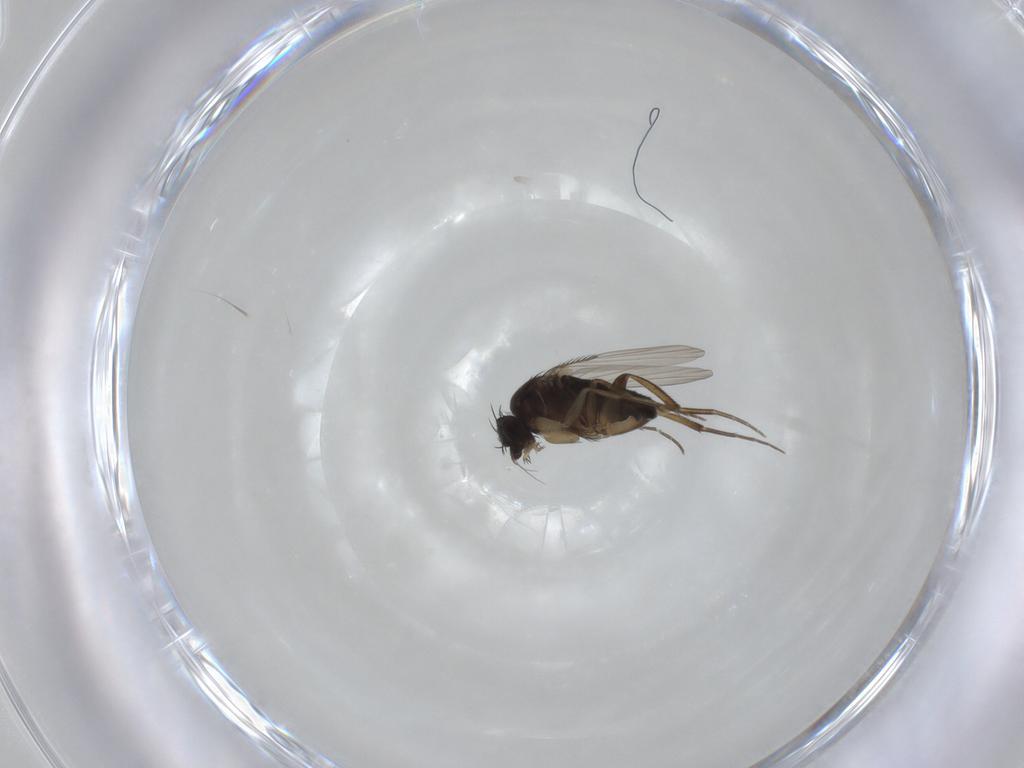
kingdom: Animalia
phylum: Arthropoda
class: Insecta
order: Diptera
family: Phoridae
